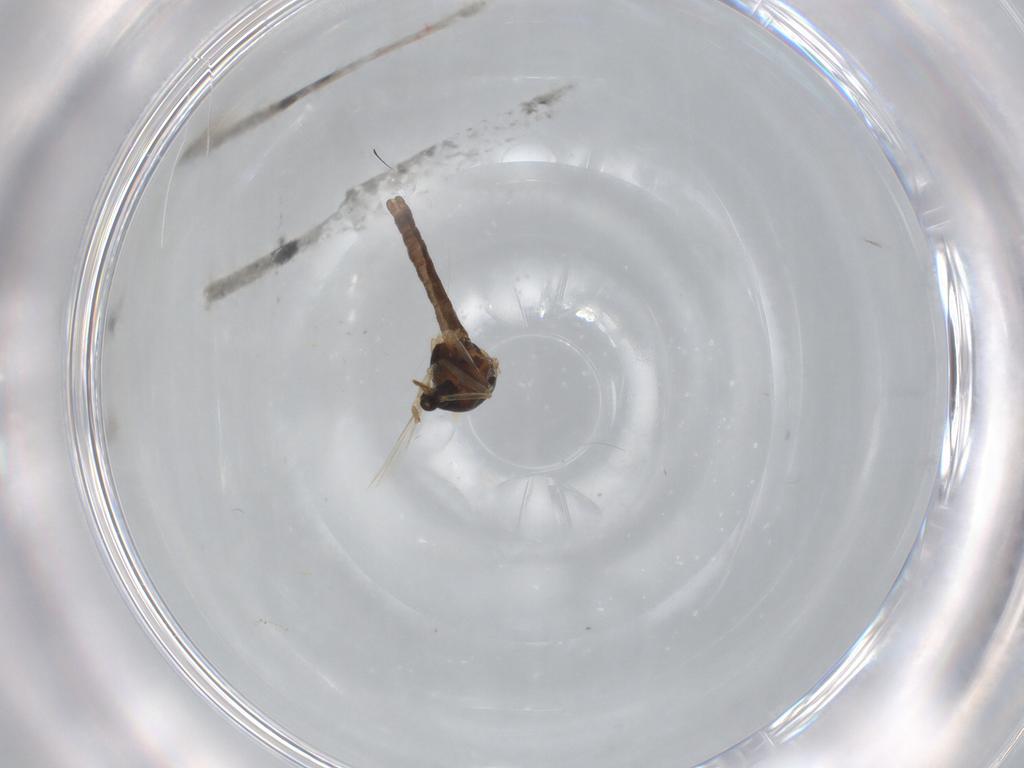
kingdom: Animalia
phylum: Arthropoda
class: Insecta
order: Diptera
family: Ceratopogonidae
